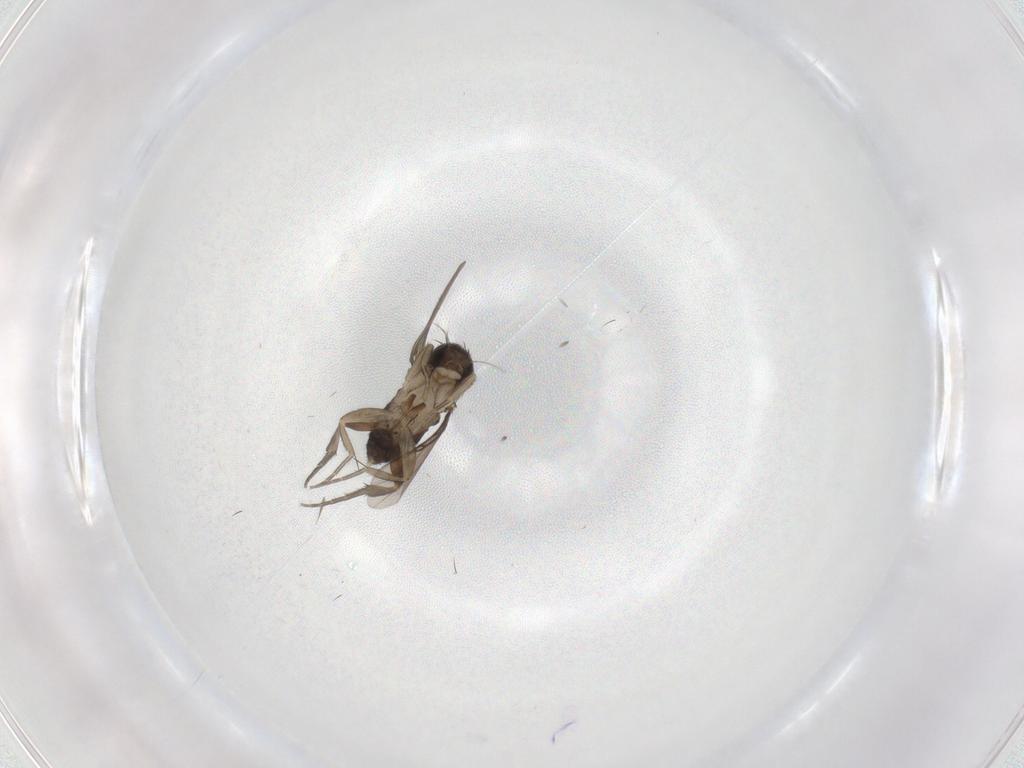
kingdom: Animalia
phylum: Arthropoda
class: Insecta
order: Diptera
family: Phoridae
